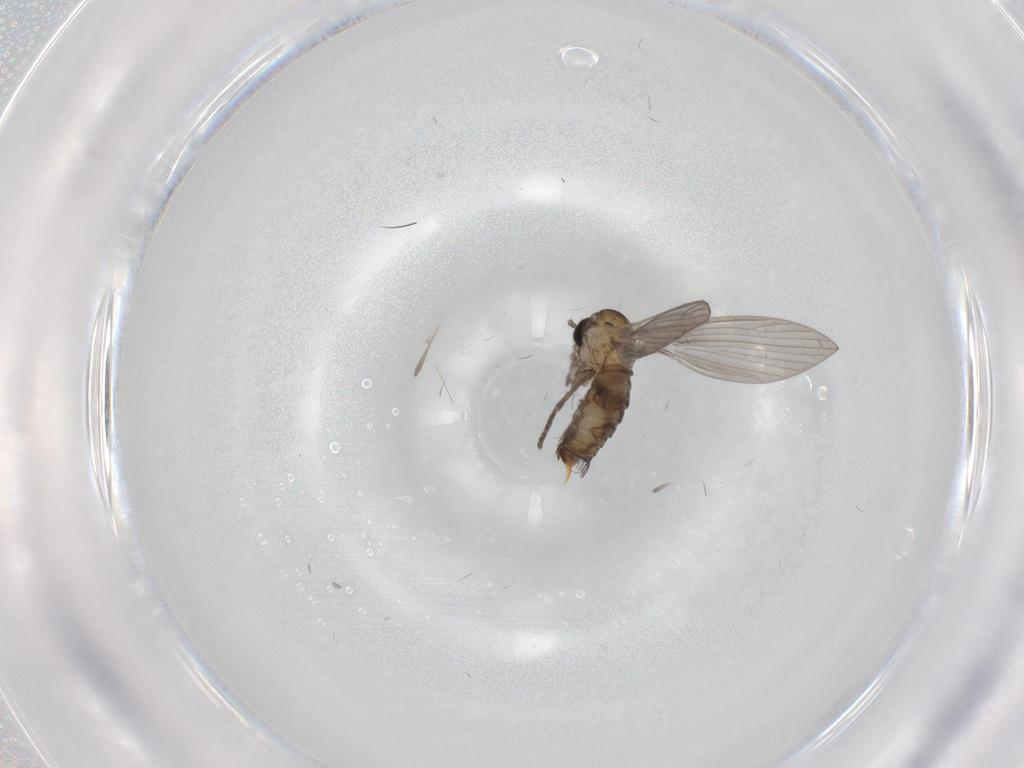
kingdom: Animalia
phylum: Arthropoda
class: Insecta
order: Diptera
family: Psychodidae
